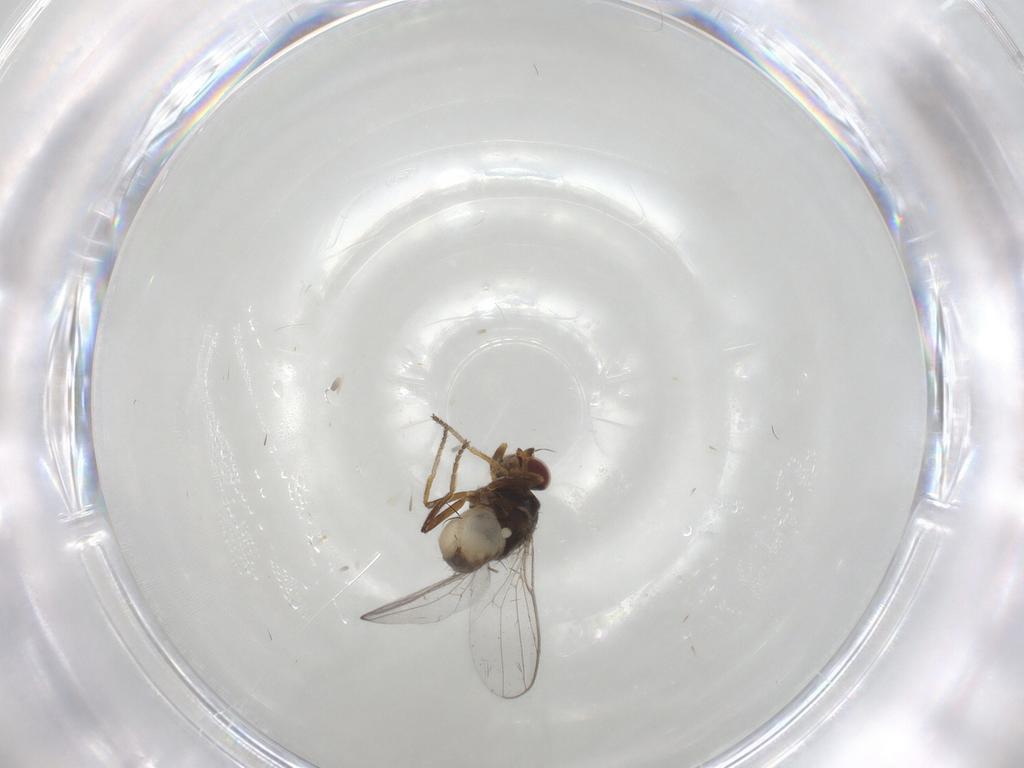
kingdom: Animalia
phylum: Arthropoda
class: Insecta
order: Diptera
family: Chloropidae
